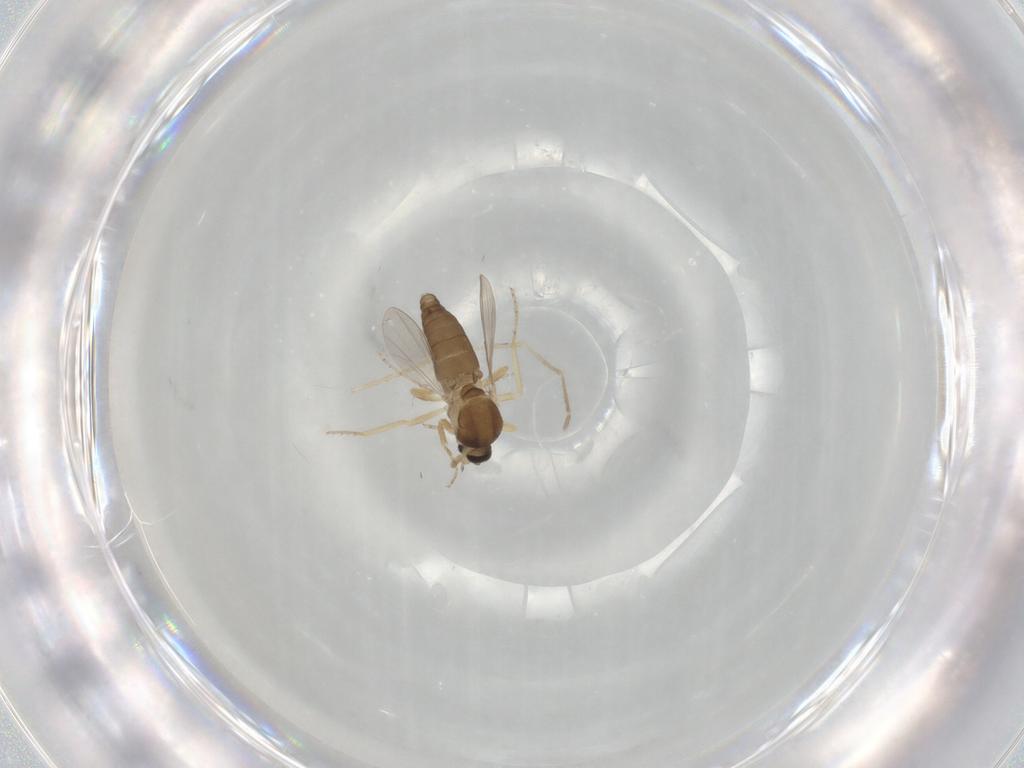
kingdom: Animalia
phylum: Arthropoda
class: Insecta
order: Diptera
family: Ceratopogonidae
